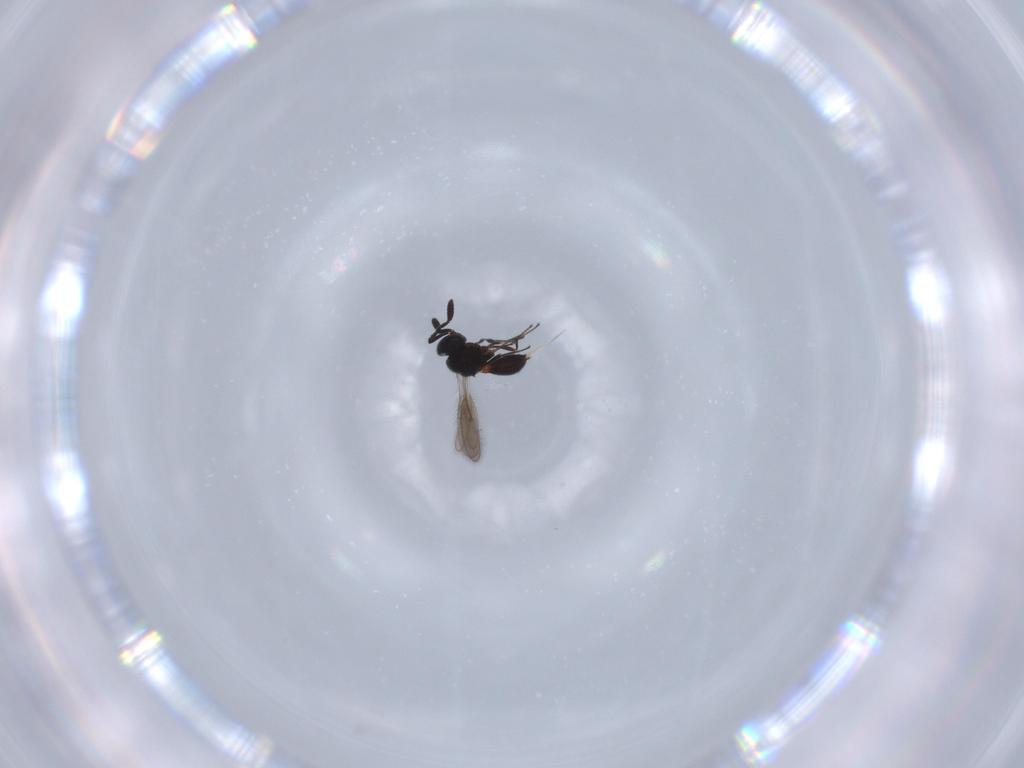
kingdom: Animalia
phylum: Arthropoda
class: Insecta
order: Hymenoptera
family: Scelionidae
